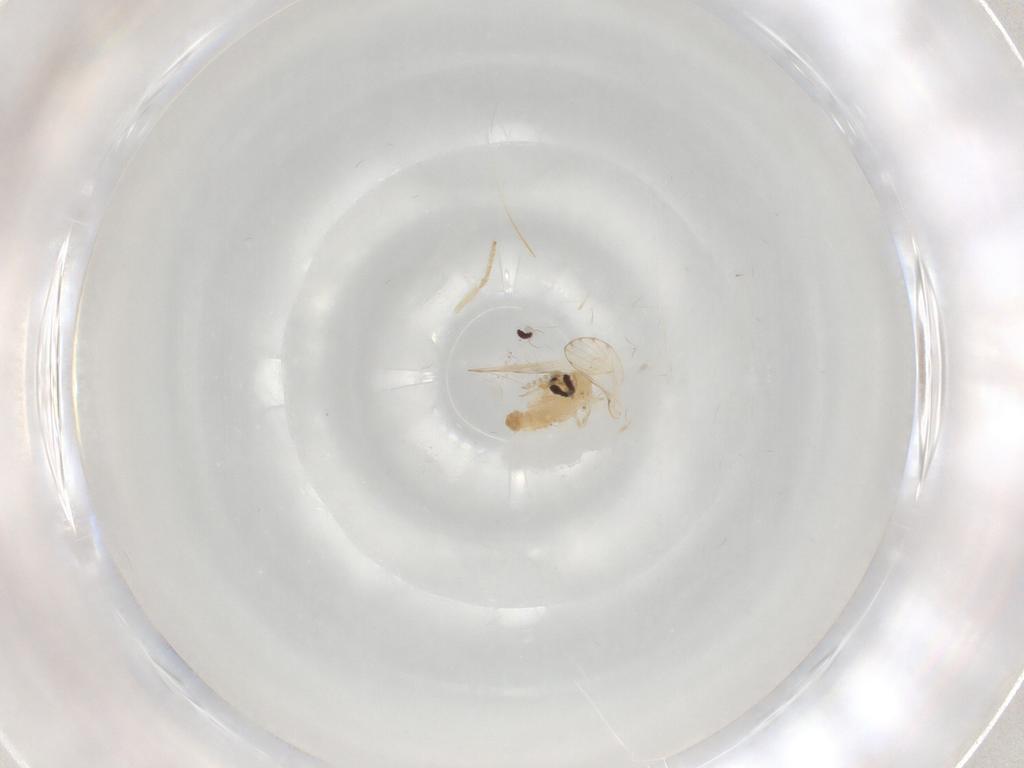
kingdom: Animalia
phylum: Arthropoda
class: Insecta
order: Diptera
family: Psychodidae
